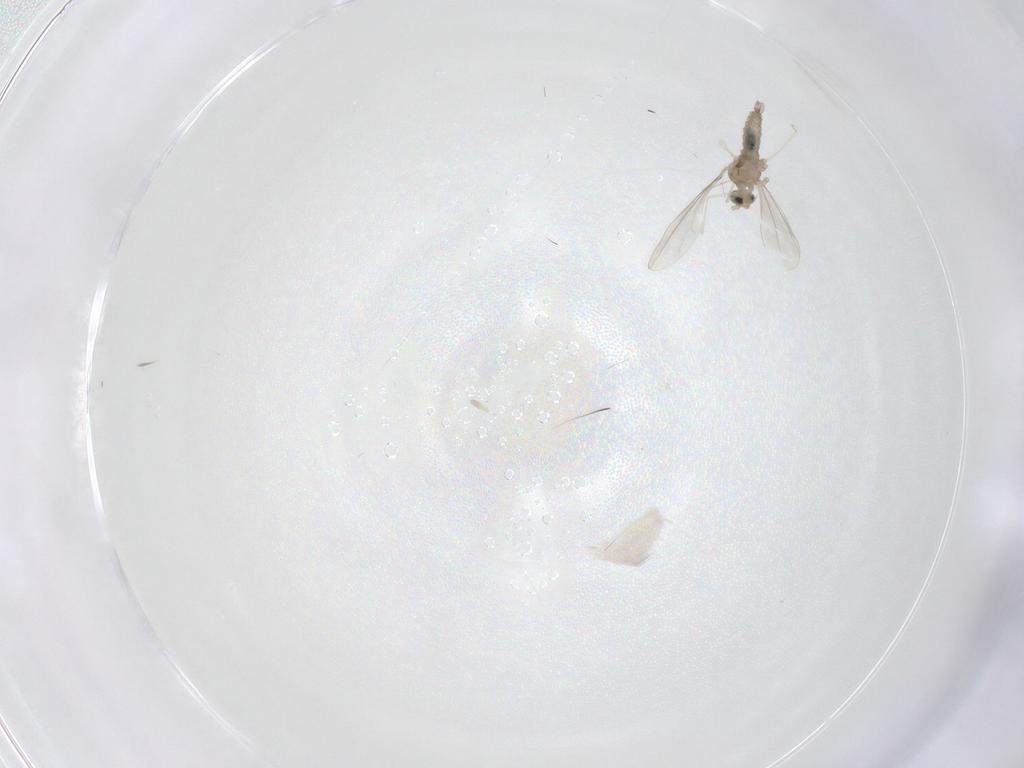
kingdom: Animalia
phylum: Arthropoda
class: Insecta
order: Diptera
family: Cecidomyiidae
